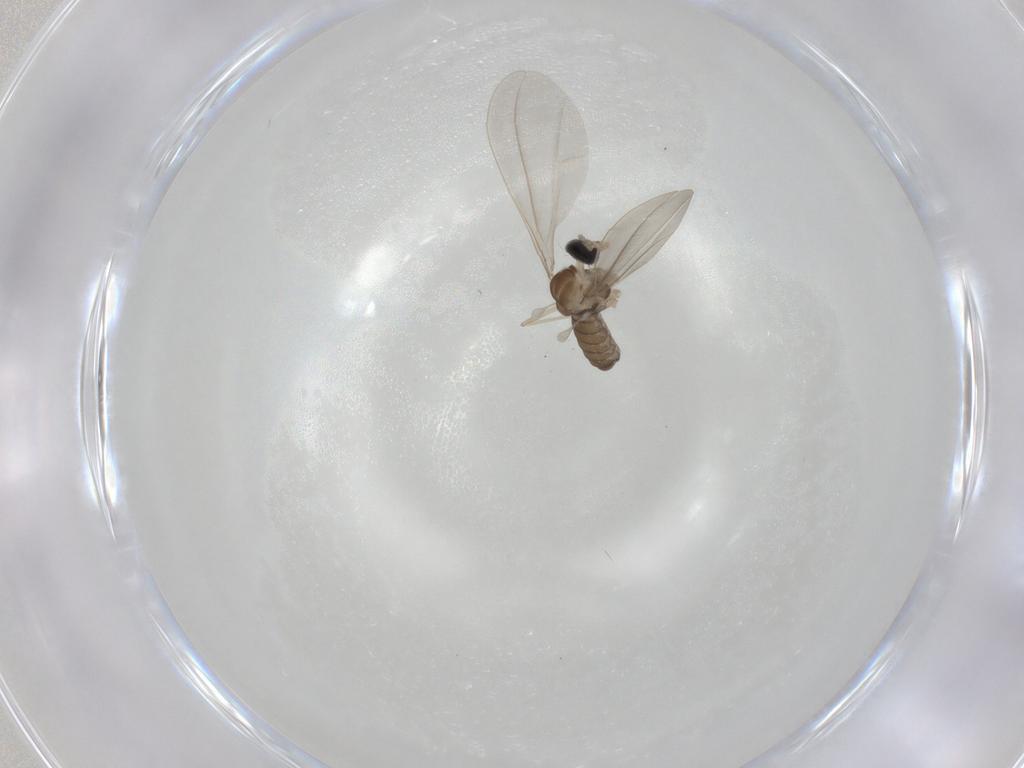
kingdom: Animalia
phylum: Arthropoda
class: Insecta
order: Diptera
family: Cecidomyiidae
